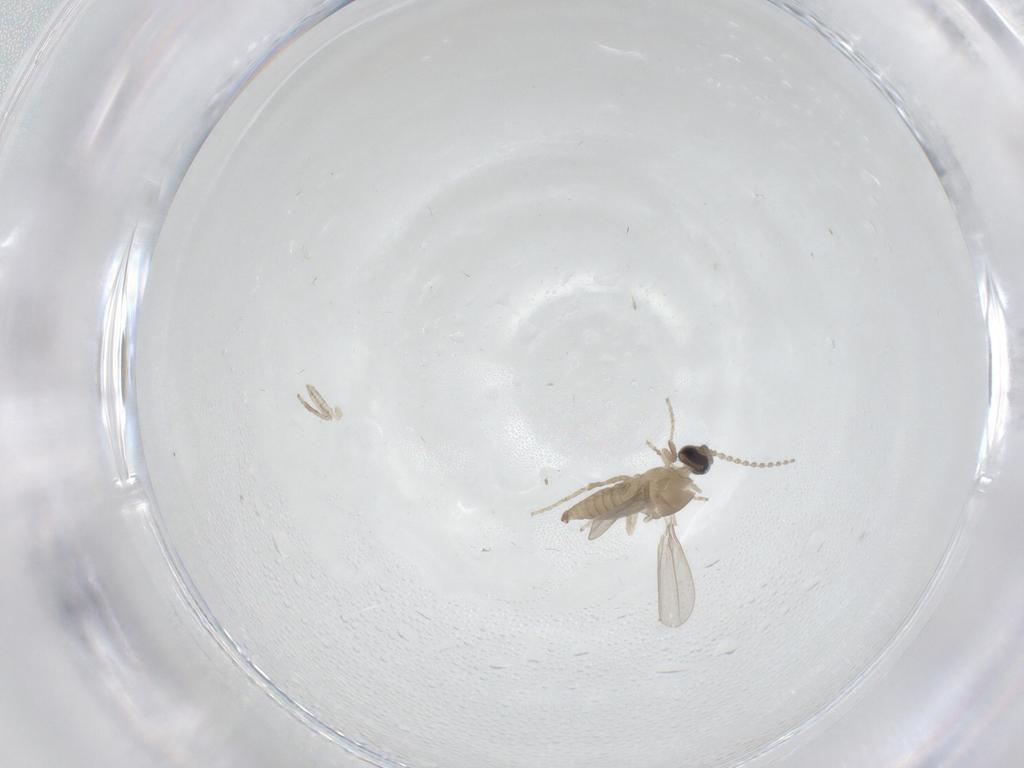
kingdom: Animalia
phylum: Arthropoda
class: Insecta
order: Diptera
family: Cecidomyiidae
